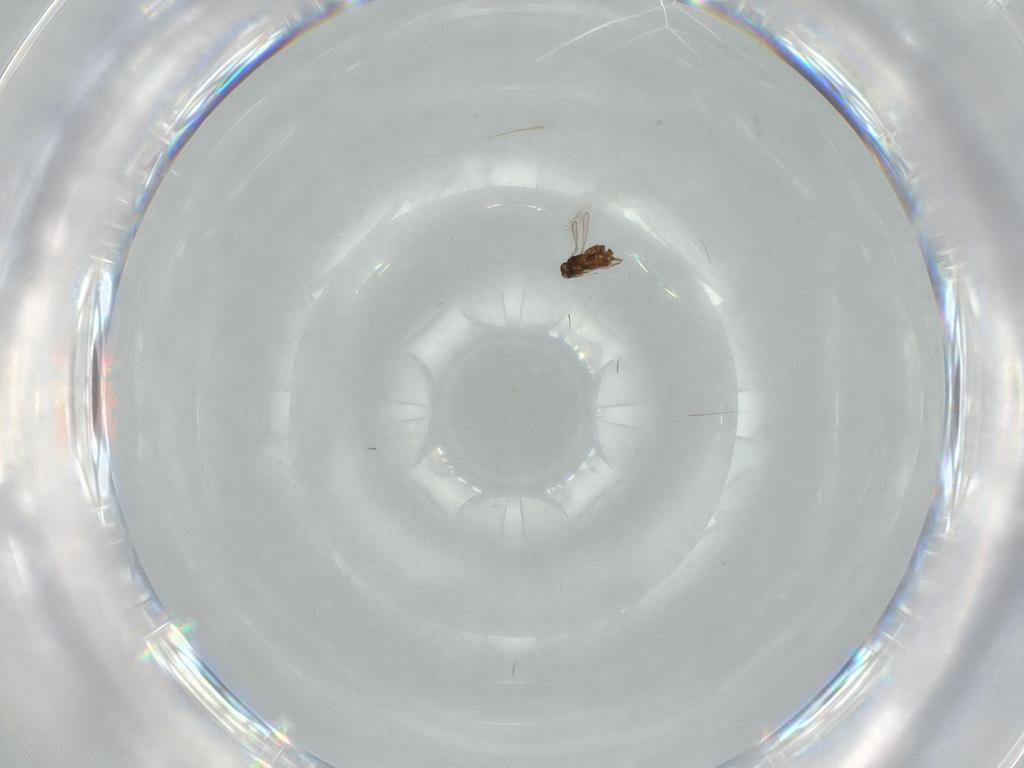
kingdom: Animalia
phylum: Arthropoda
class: Insecta
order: Hymenoptera
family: Mymaridae
